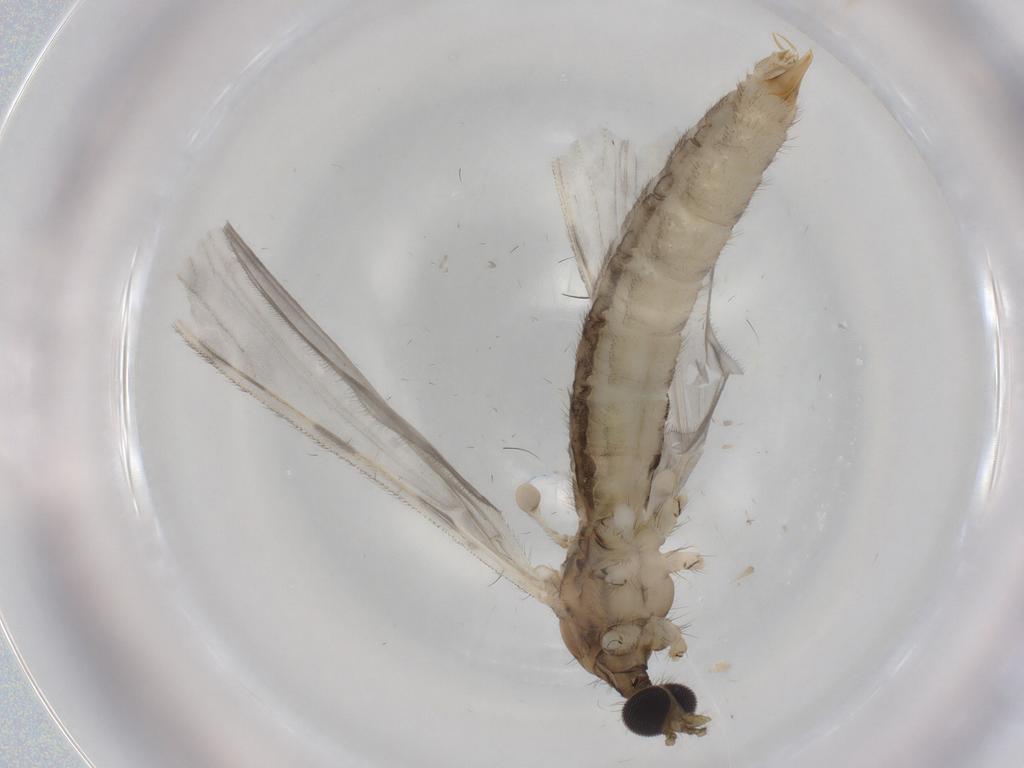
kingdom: Animalia
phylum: Arthropoda
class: Insecta
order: Diptera
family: Limoniidae
